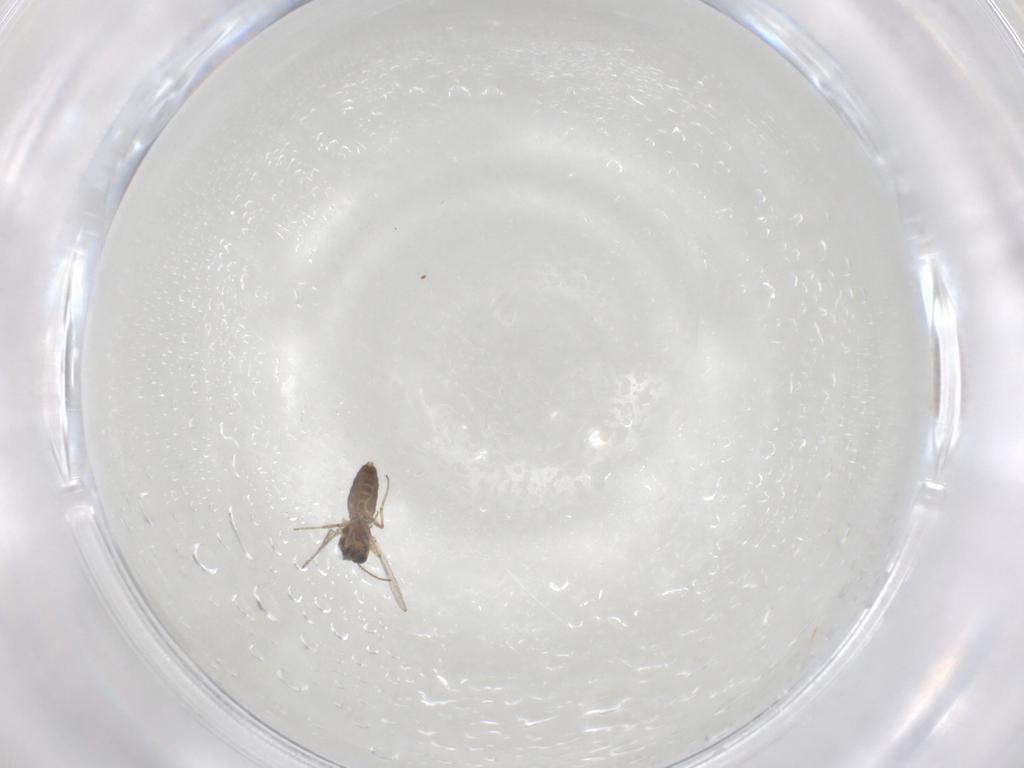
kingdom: Animalia
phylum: Arthropoda
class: Insecta
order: Diptera
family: Ceratopogonidae
